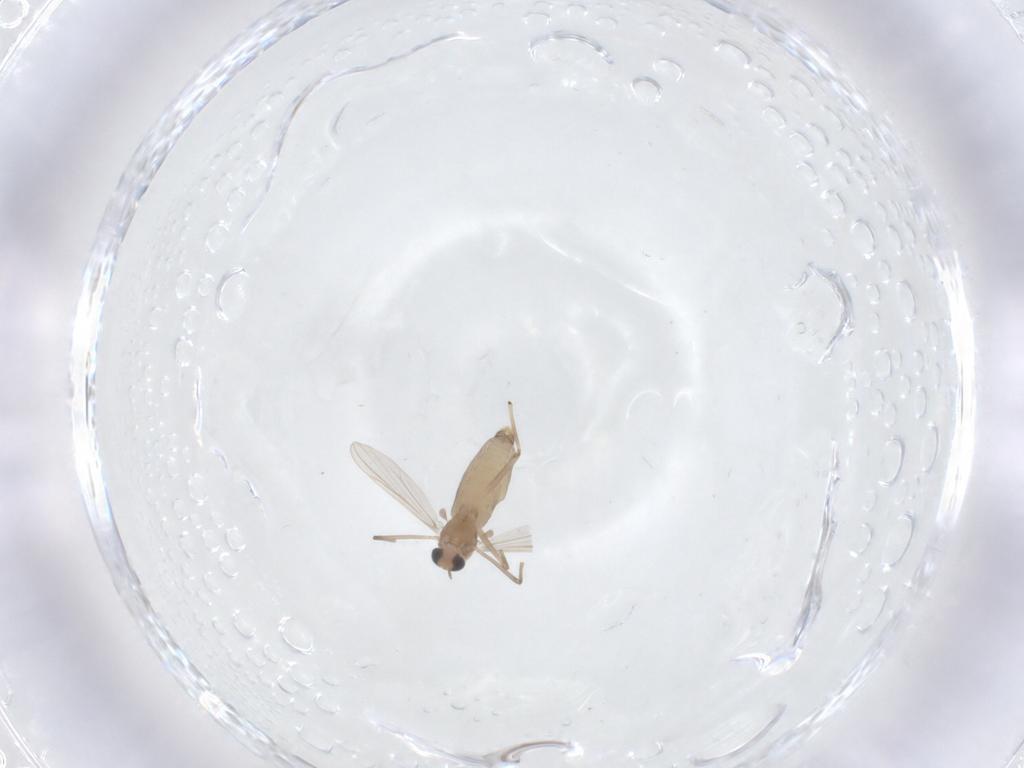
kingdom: Animalia
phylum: Arthropoda
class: Insecta
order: Diptera
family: Chironomidae
